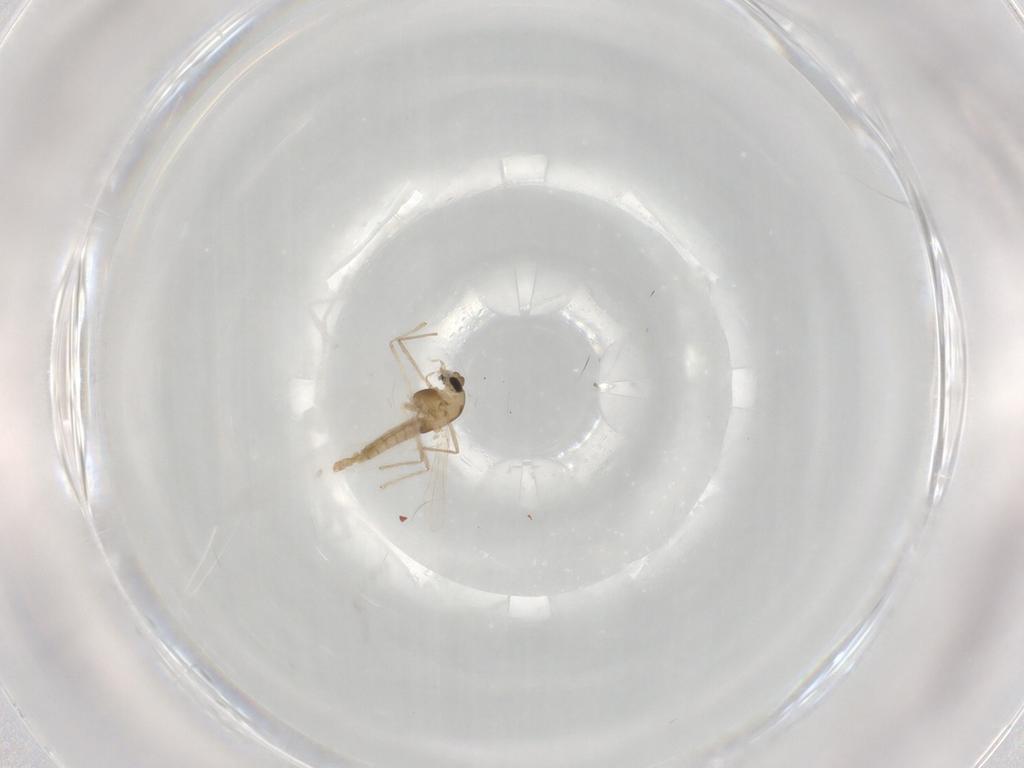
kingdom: Animalia
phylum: Arthropoda
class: Insecta
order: Diptera
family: Chironomidae
